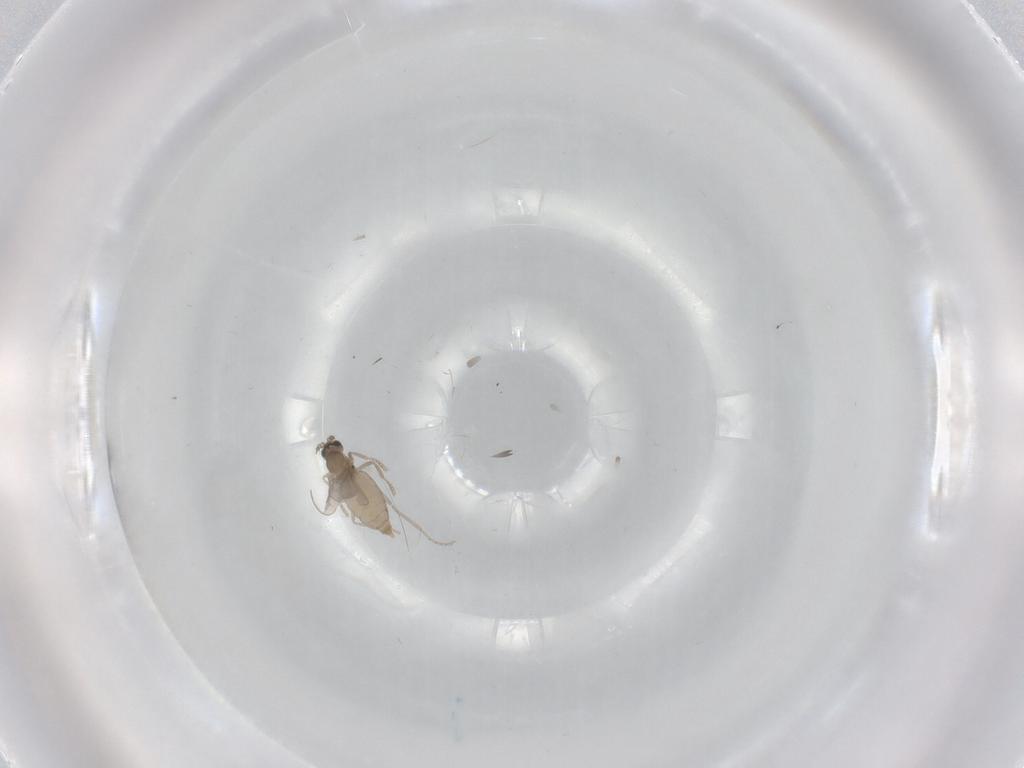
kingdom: Animalia
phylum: Arthropoda
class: Insecta
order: Diptera
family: Cecidomyiidae
